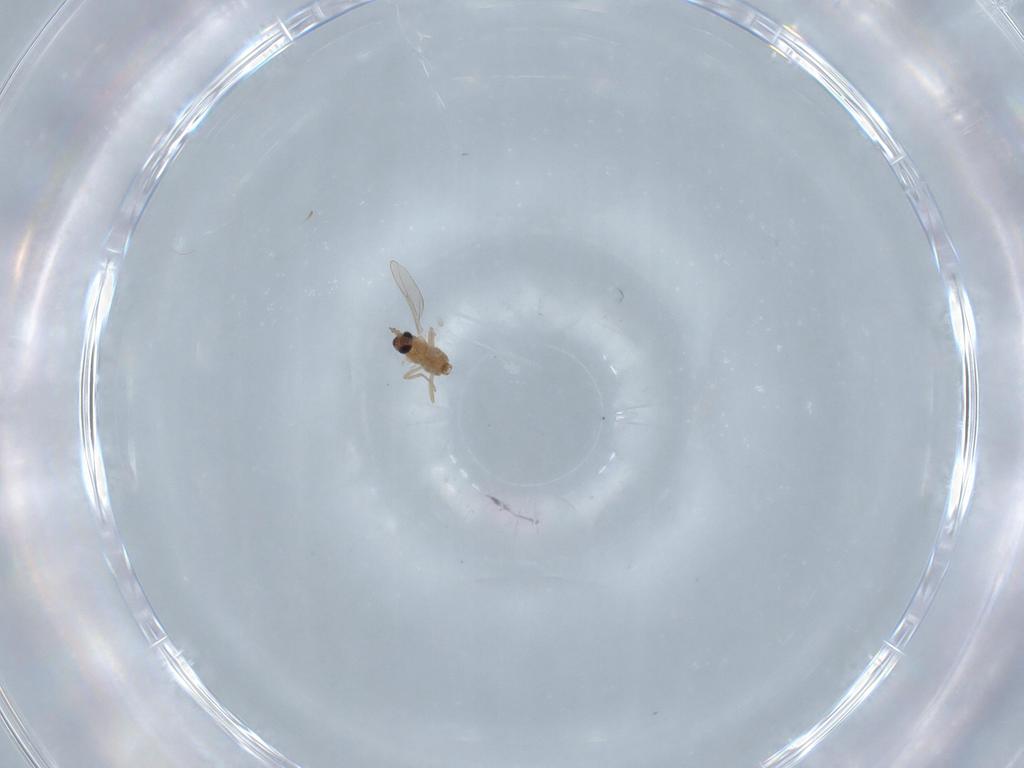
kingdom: Animalia
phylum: Arthropoda
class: Insecta
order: Diptera
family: Cecidomyiidae
